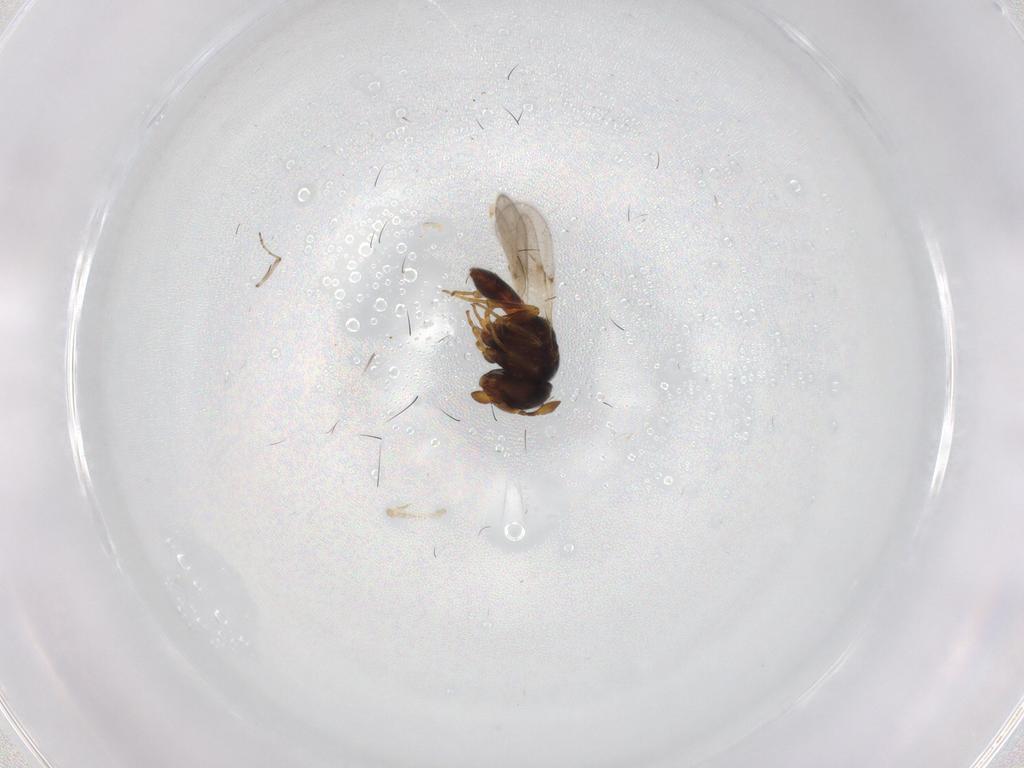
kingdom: Animalia
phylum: Arthropoda
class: Insecta
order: Hymenoptera
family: Scelionidae
